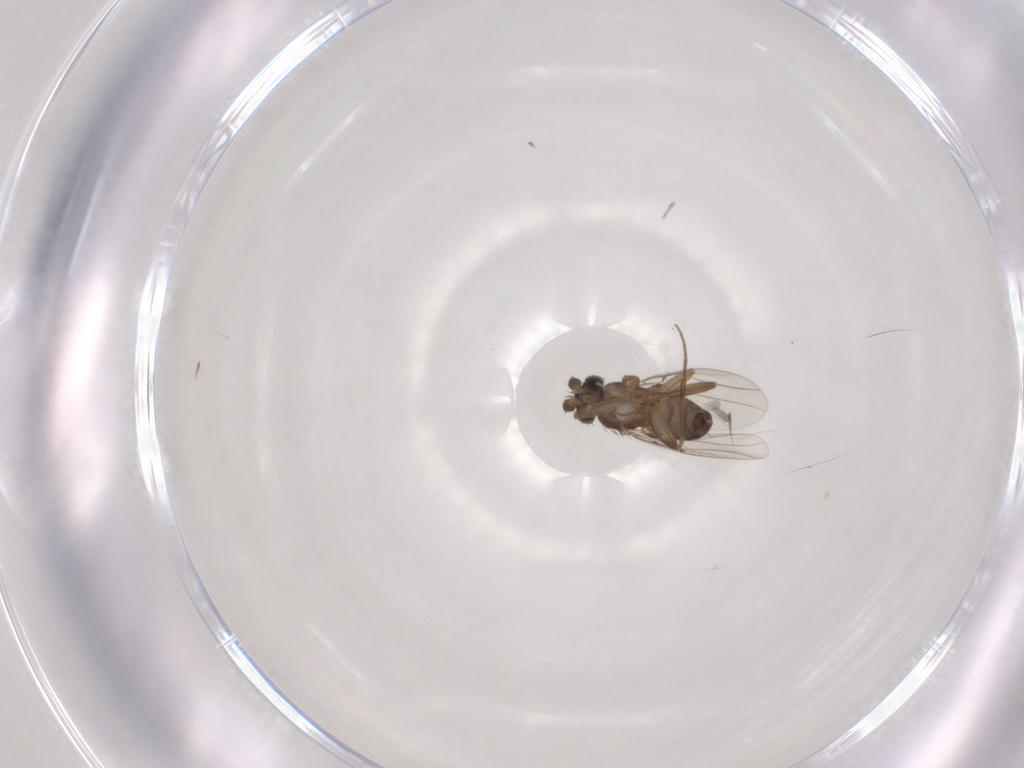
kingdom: Animalia
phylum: Arthropoda
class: Insecta
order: Diptera
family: Phoridae
